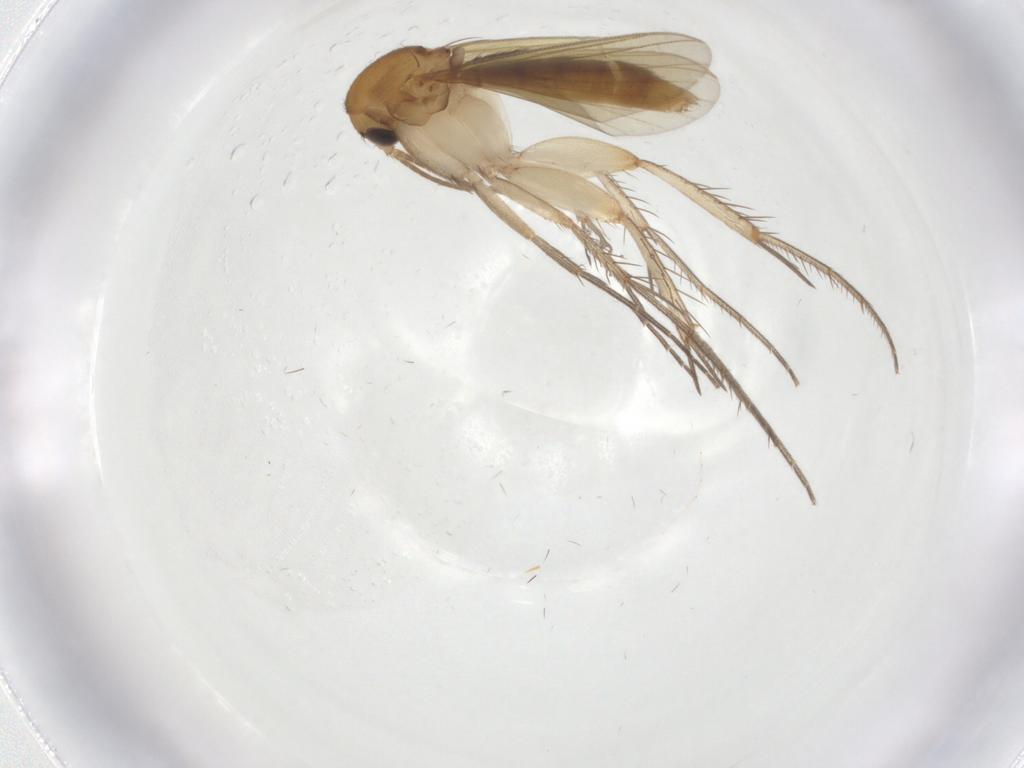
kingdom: Animalia
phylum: Arthropoda
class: Insecta
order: Diptera
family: Mycetophilidae
